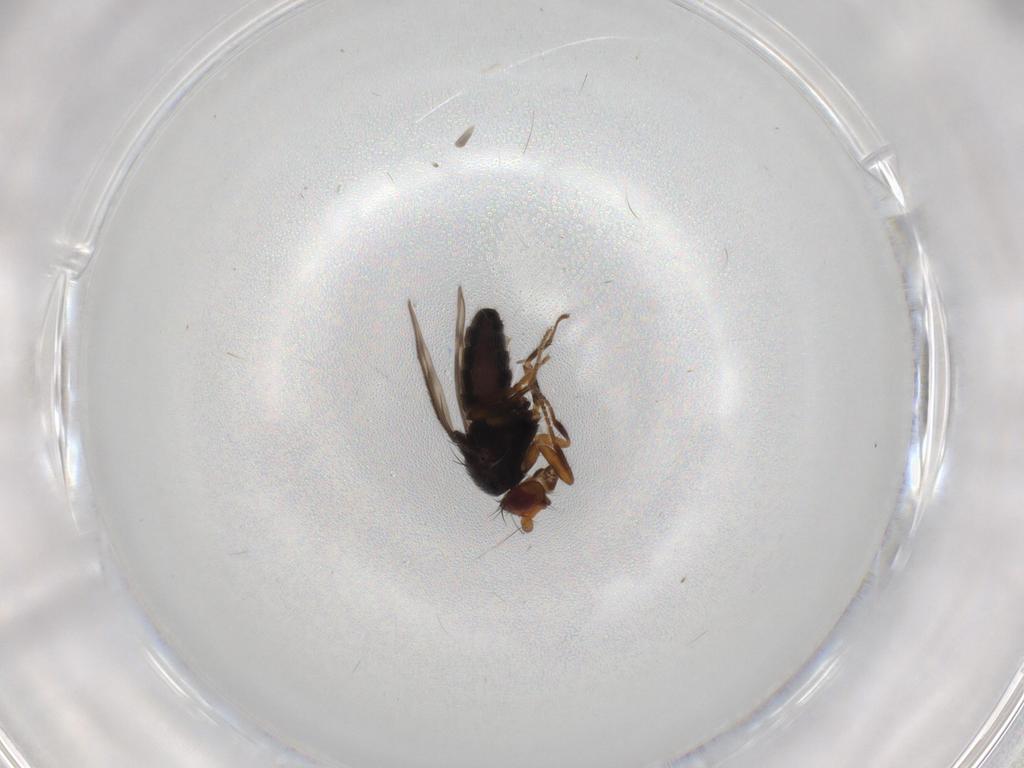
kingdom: Animalia
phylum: Arthropoda
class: Insecta
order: Diptera
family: Sphaeroceridae
